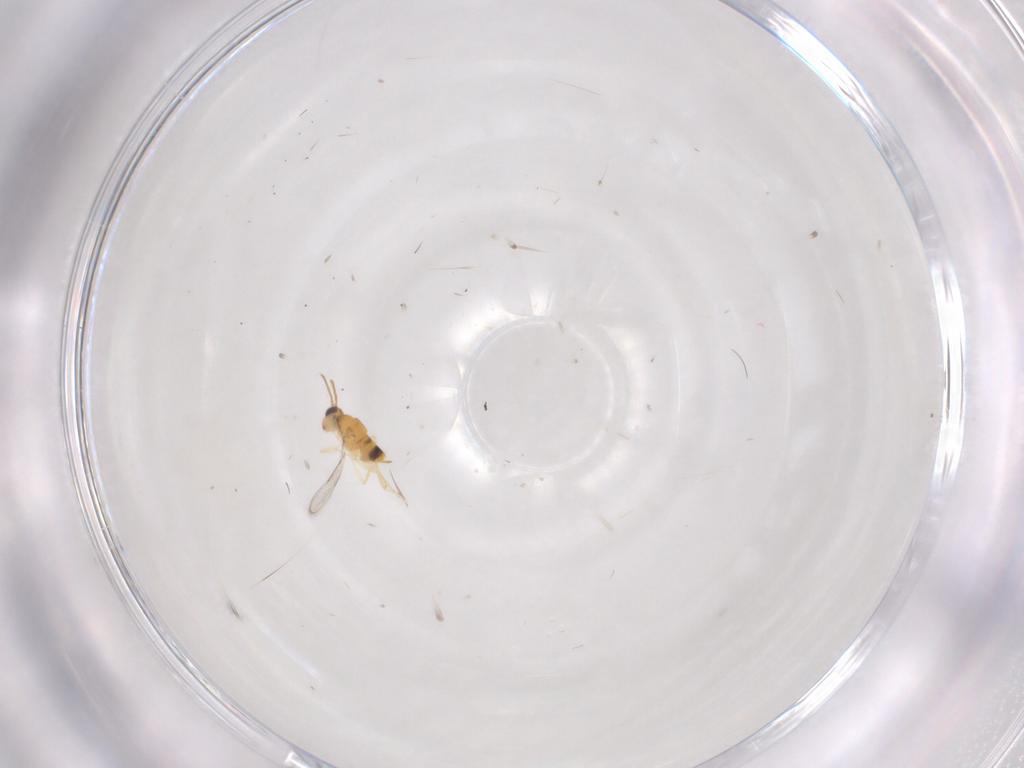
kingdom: Animalia
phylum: Arthropoda
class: Insecta
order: Hymenoptera
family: Aphelinidae
